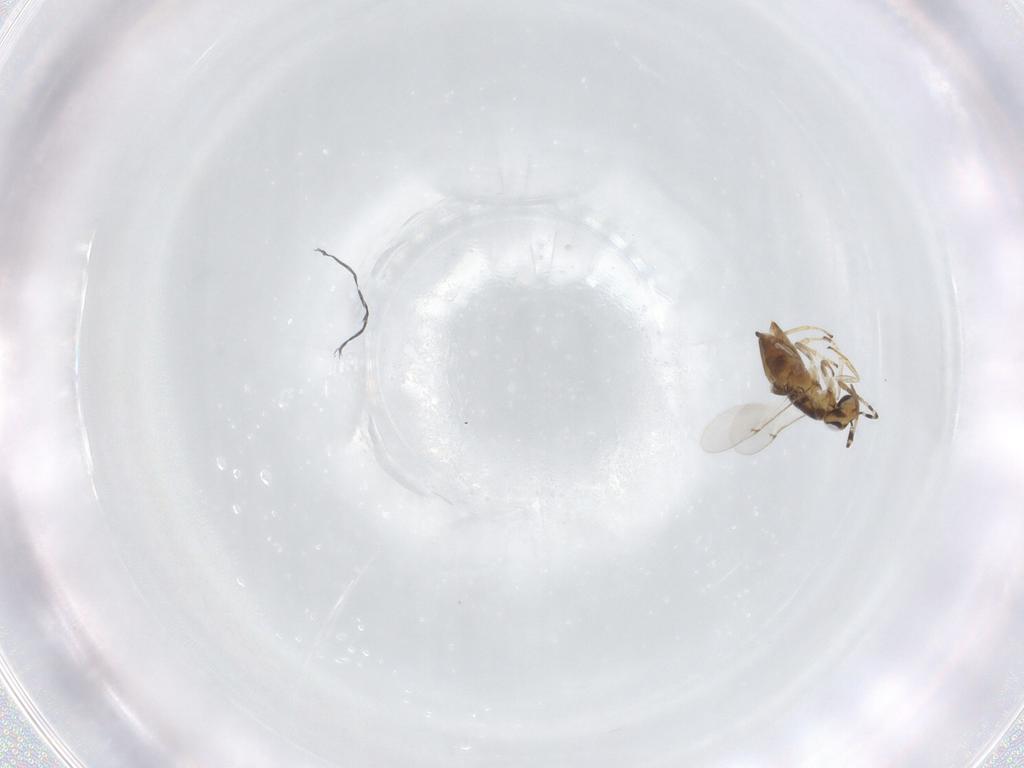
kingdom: Animalia
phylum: Arthropoda
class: Insecta
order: Hymenoptera
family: Encyrtidae
